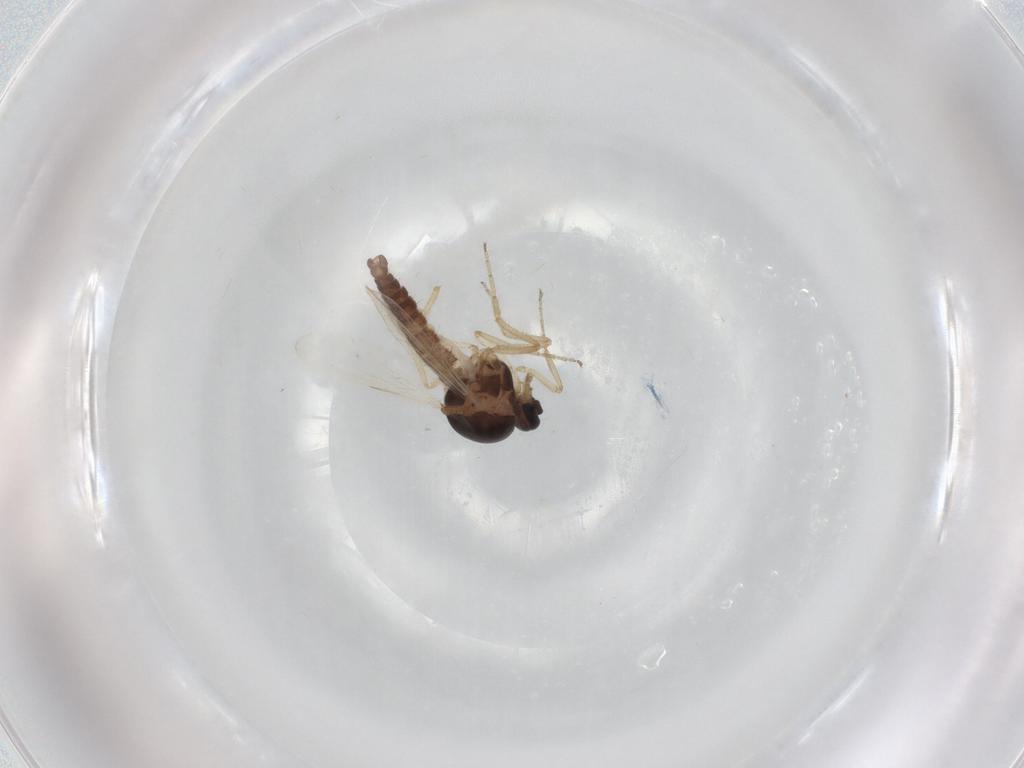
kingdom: Animalia
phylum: Arthropoda
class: Insecta
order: Diptera
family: Ceratopogonidae
